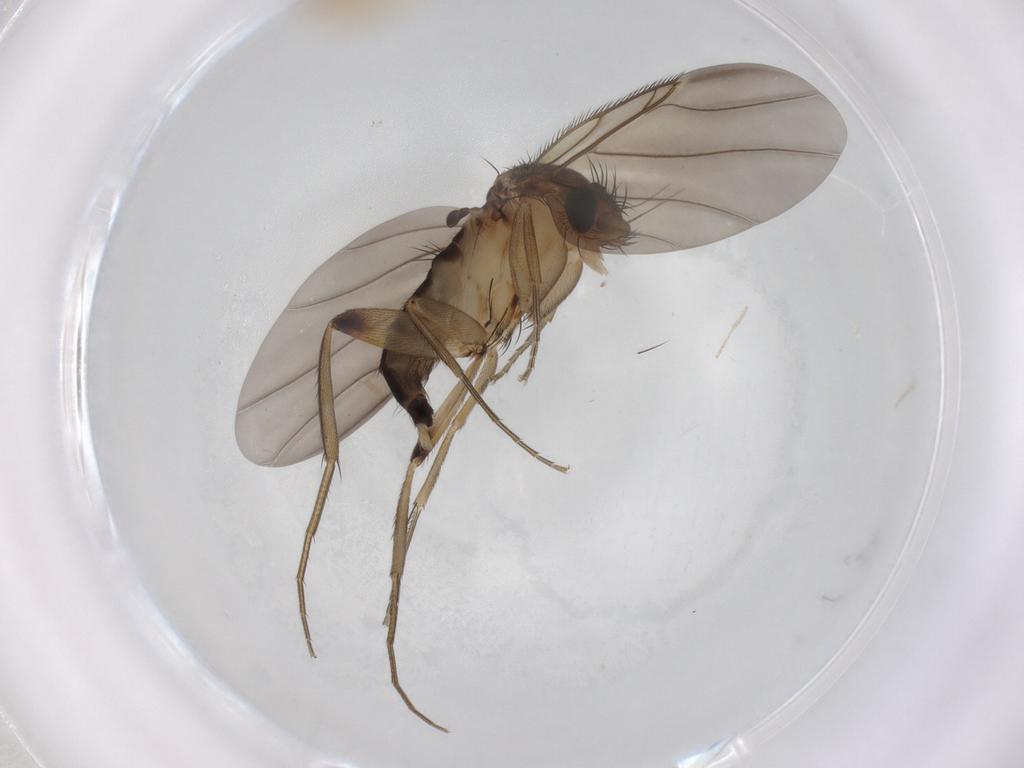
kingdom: Animalia
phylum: Arthropoda
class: Insecta
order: Diptera
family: Phoridae
